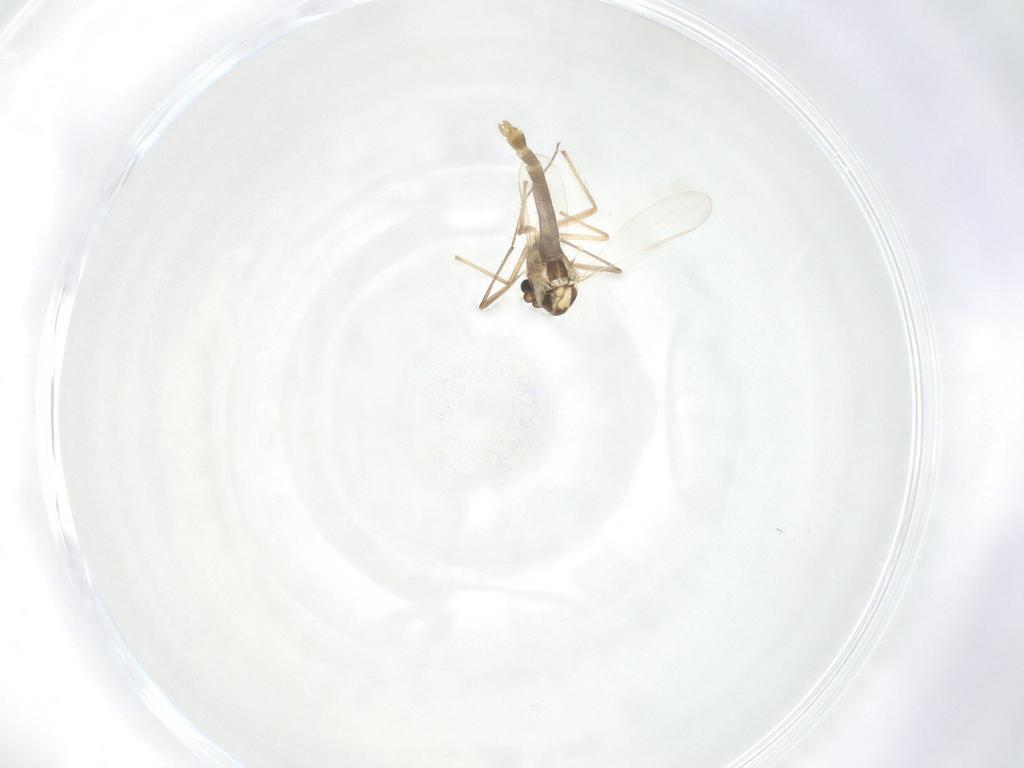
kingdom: Animalia
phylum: Arthropoda
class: Insecta
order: Diptera
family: Chironomidae
